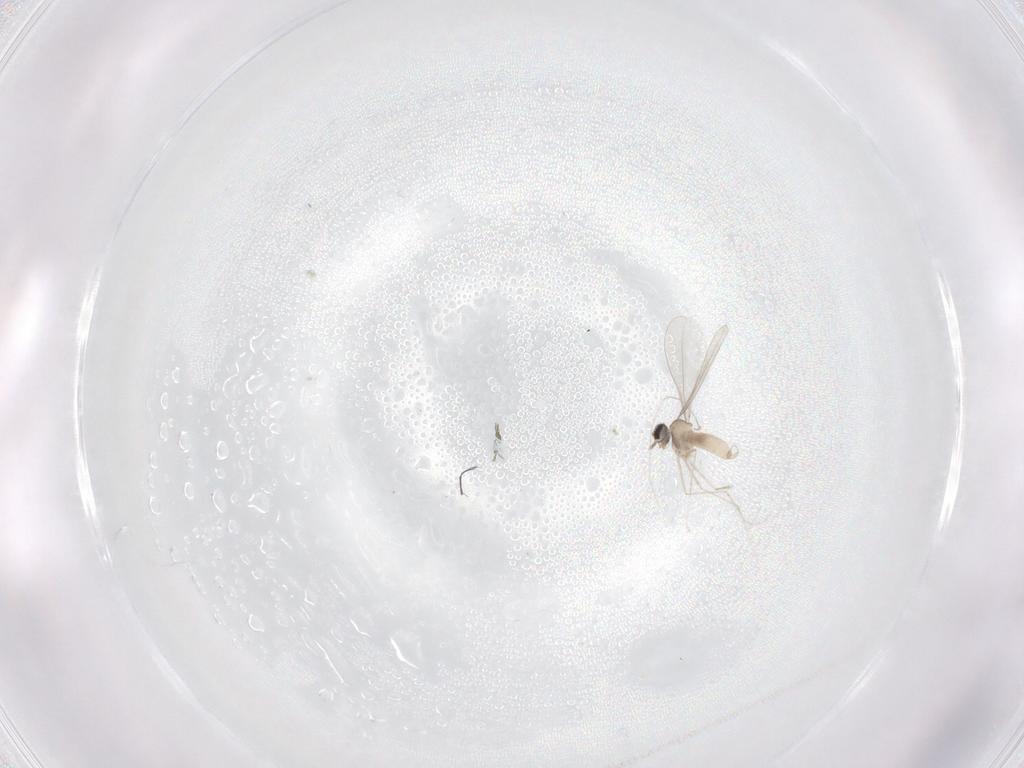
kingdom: Animalia
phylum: Arthropoda
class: Insecta
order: Diptera
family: Cecidomyiidae
